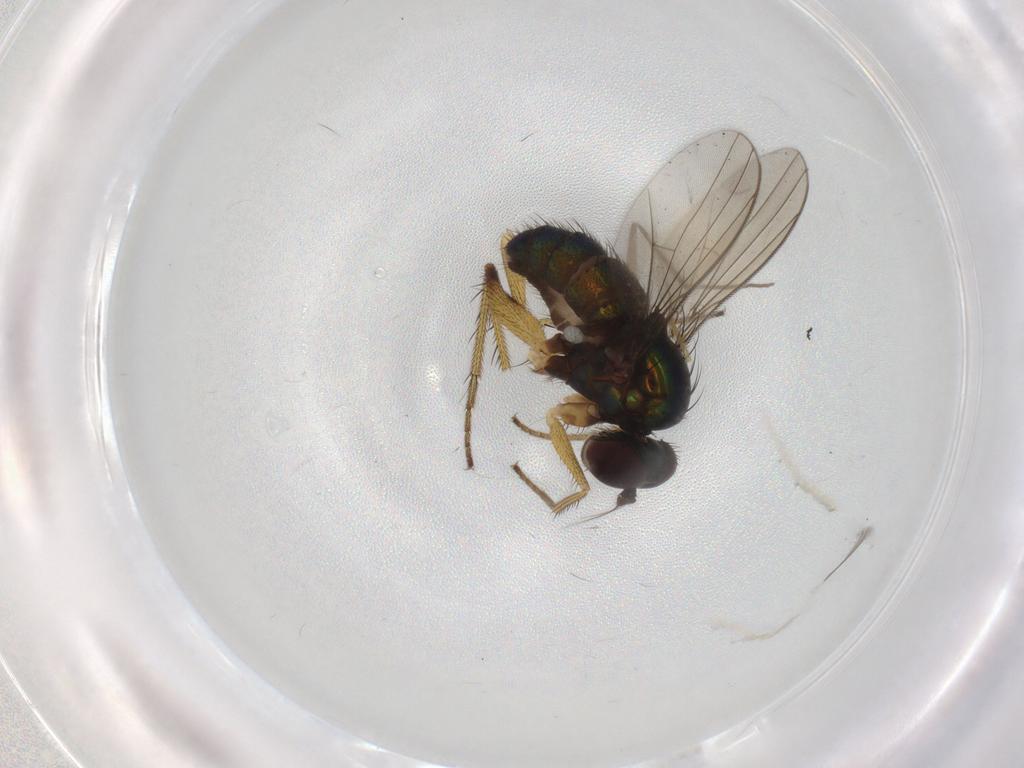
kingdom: Animalia
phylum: Arthropoda
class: Insecta
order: Diptera
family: Dolichopodidae
